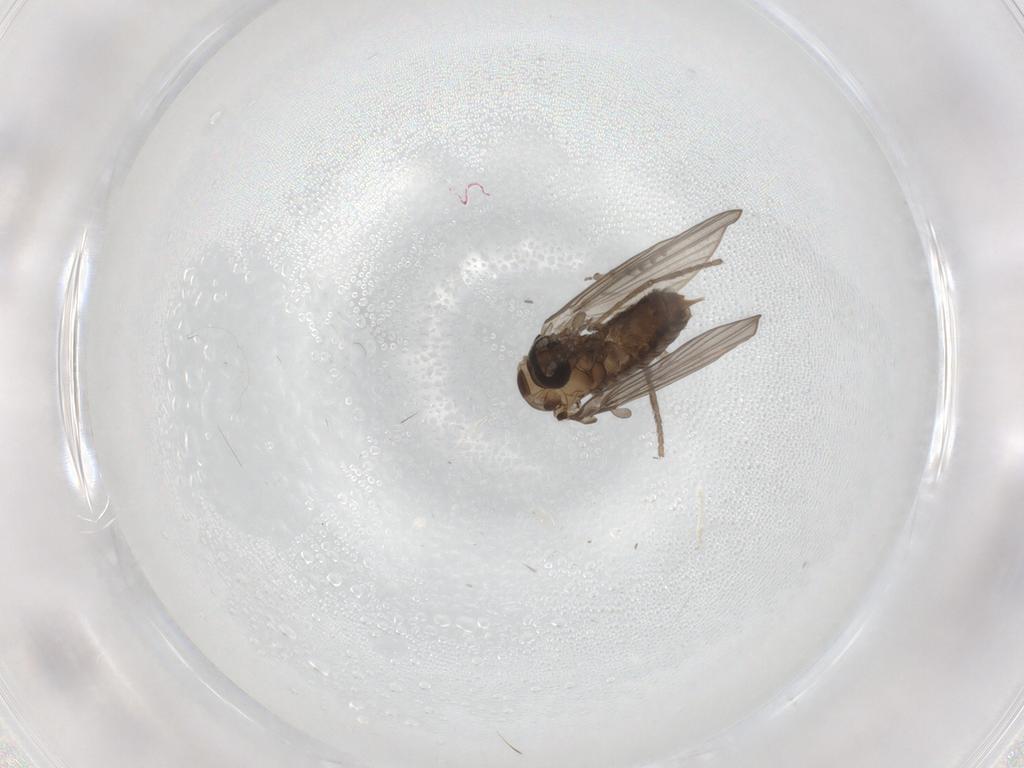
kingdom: Animalia
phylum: Arthropoda
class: Insecta
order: Diptera
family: Psychodidae
